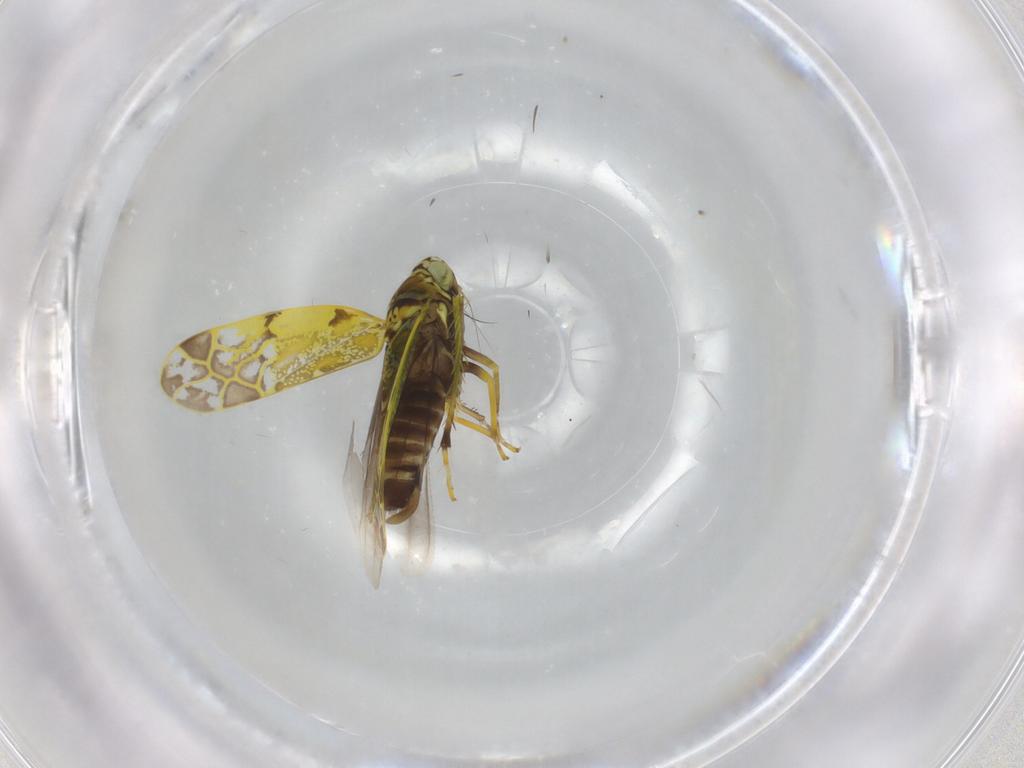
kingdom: Animalia
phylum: Arthropoda
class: Insecta
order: Hemiptera
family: Cicadellidae
